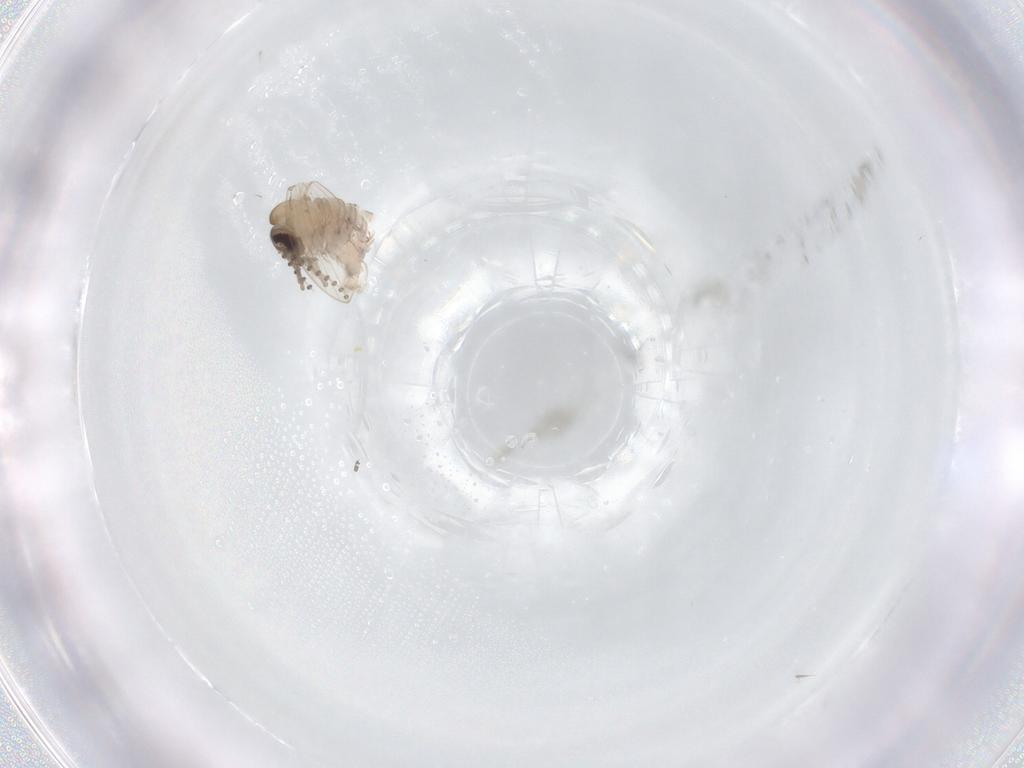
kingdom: Animalia
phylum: Arthropoda
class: Insecta
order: Diptera
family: Psychodidae
